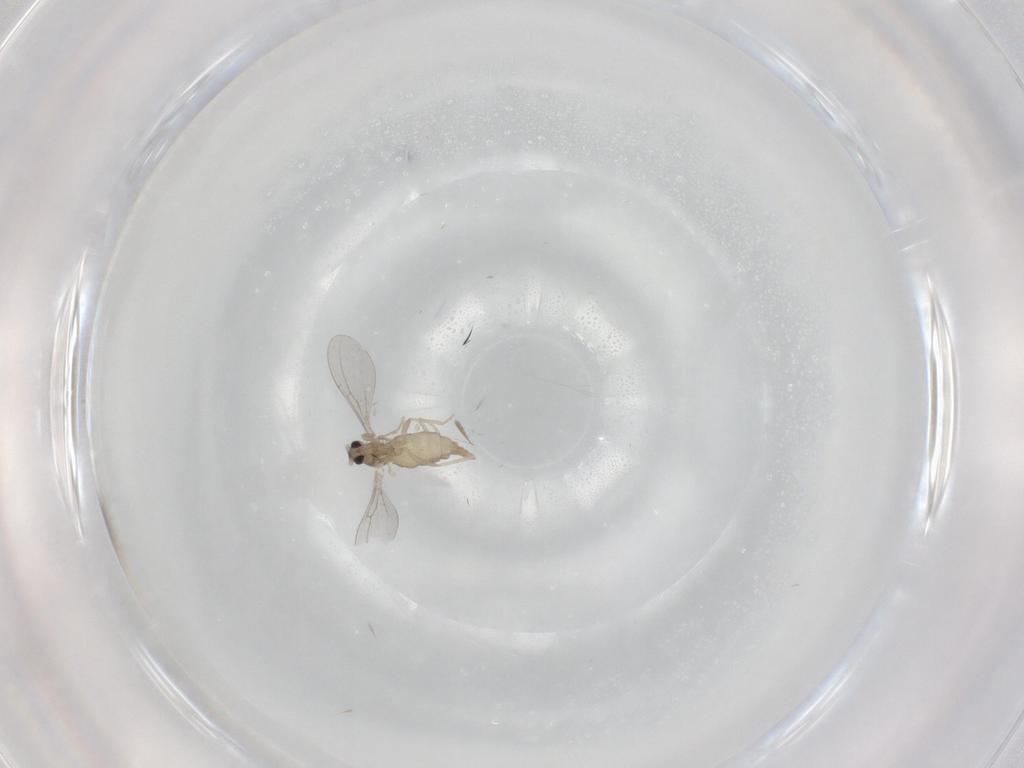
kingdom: Animalia
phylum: Arthropoda
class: Insecta
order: Diptera
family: Cecidomyiidae
